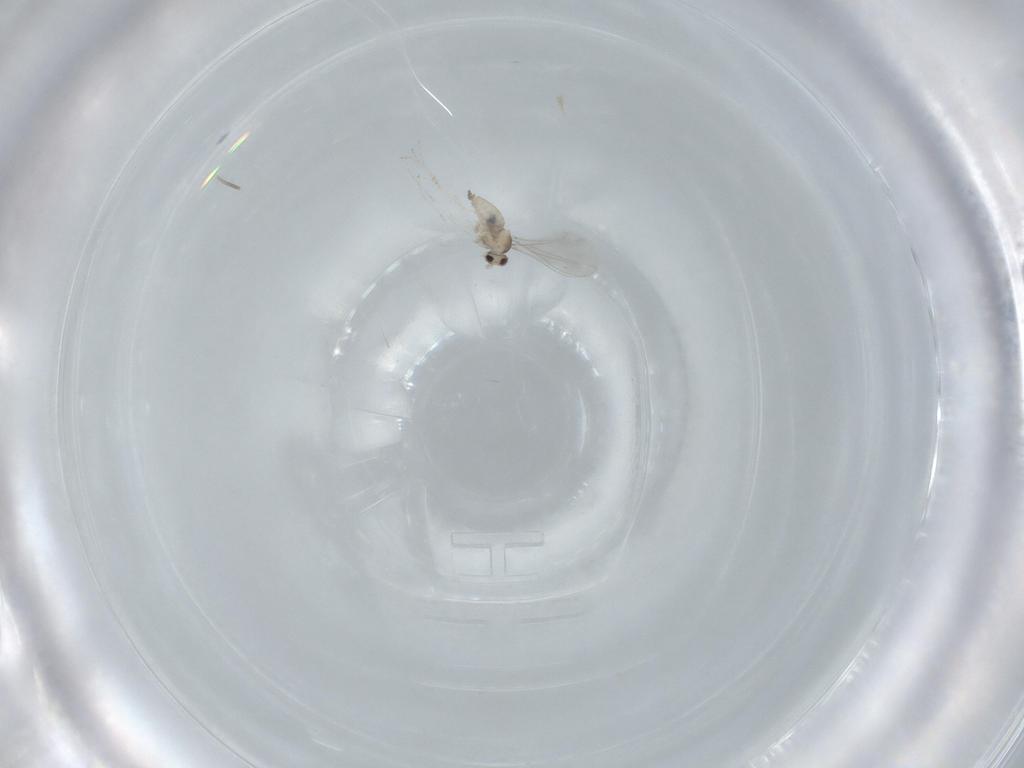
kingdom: Animalia
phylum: Arthropoda
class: Insecta
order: Diptera
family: Cecidomyiidae
